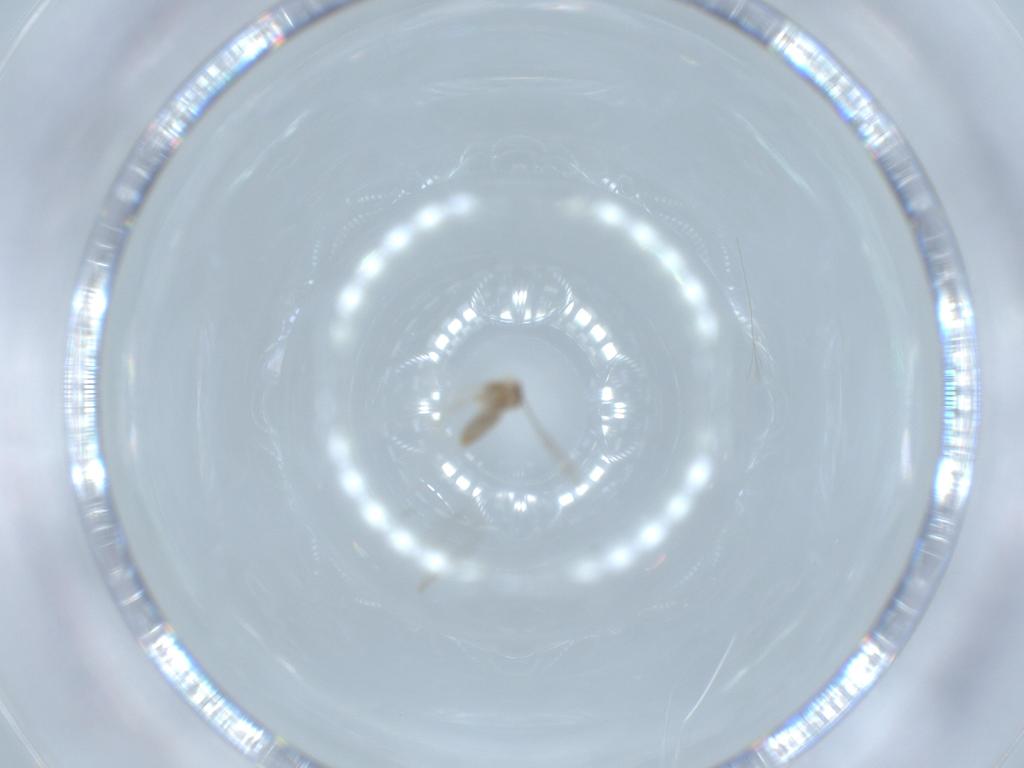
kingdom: Animalia
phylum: Arthropoda
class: Insecta
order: Diptera
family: Cecidomyiidae
